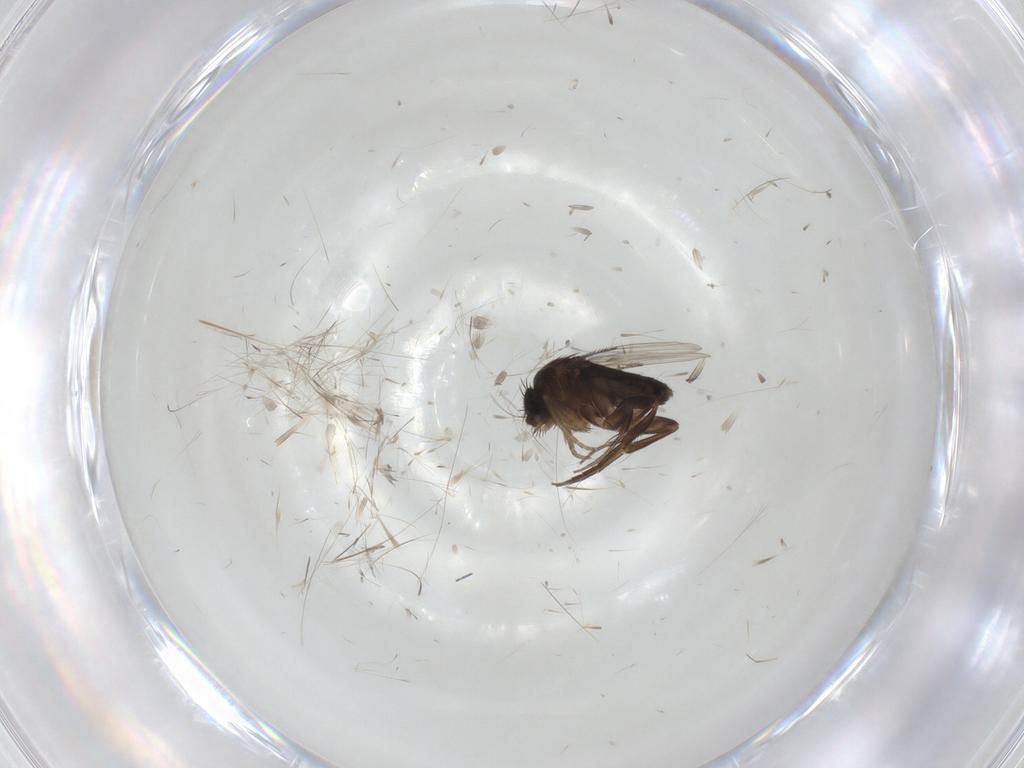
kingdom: Animalia
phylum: Arthropoda
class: Insecta
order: Diptera
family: Phoridae
